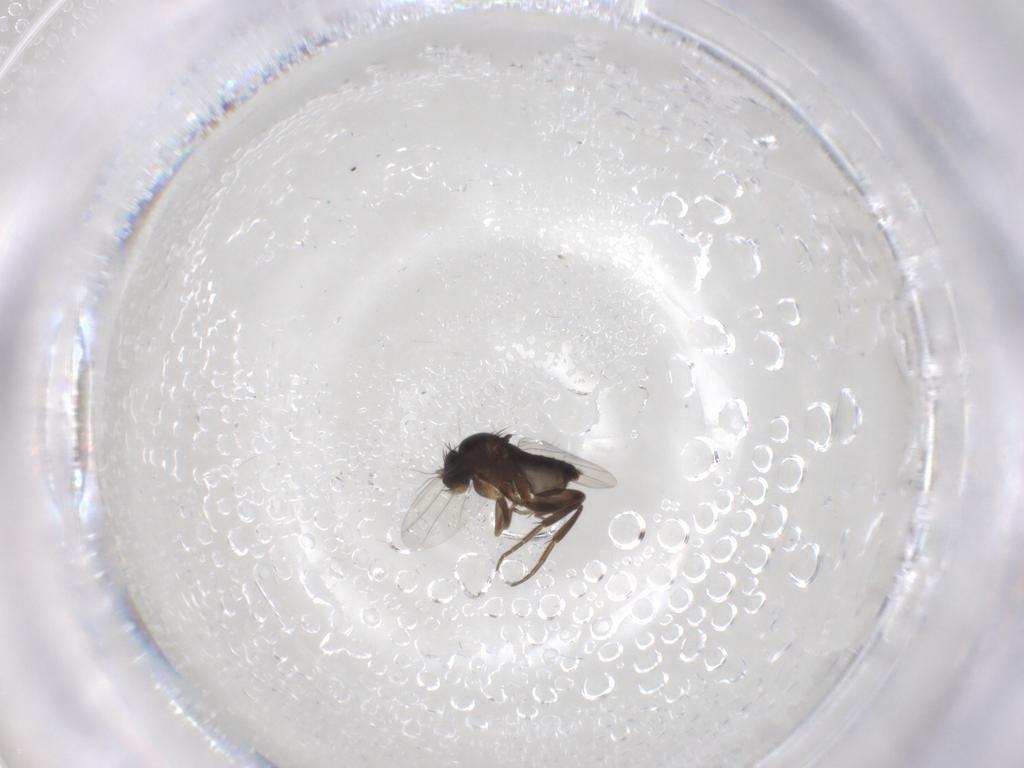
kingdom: Animalia
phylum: Arthropoda
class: Insecta
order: Diptera
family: Phoridae
